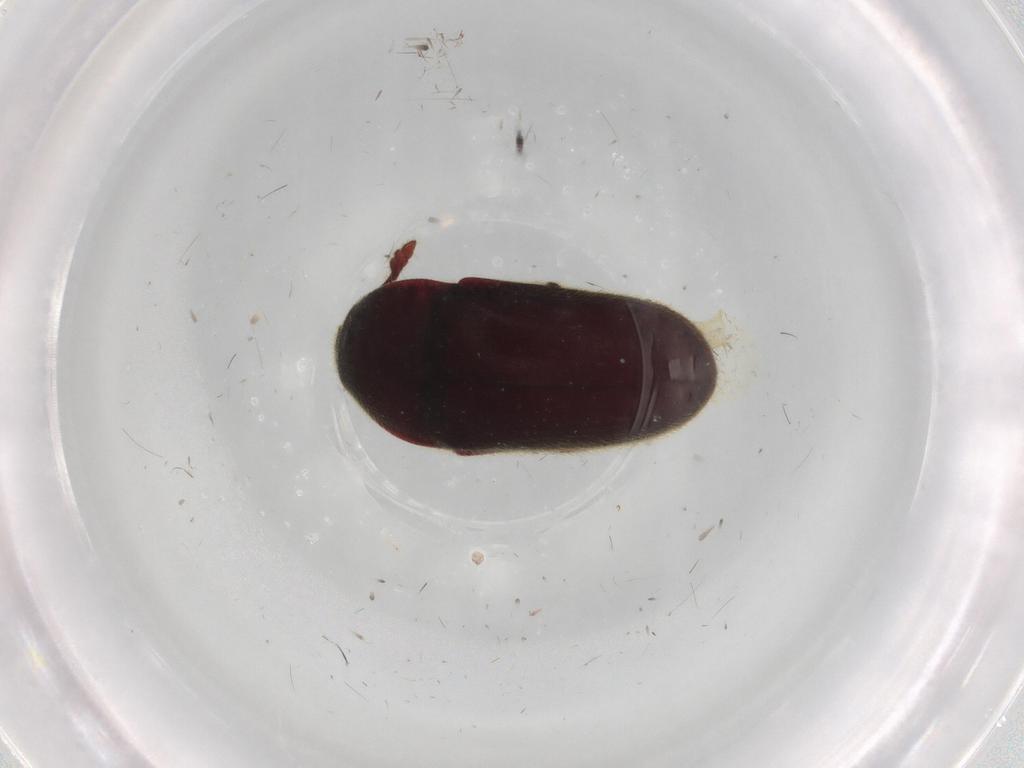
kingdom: Animalia
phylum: Arthropoda
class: Insecta
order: Coleoptera
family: Throscidae
